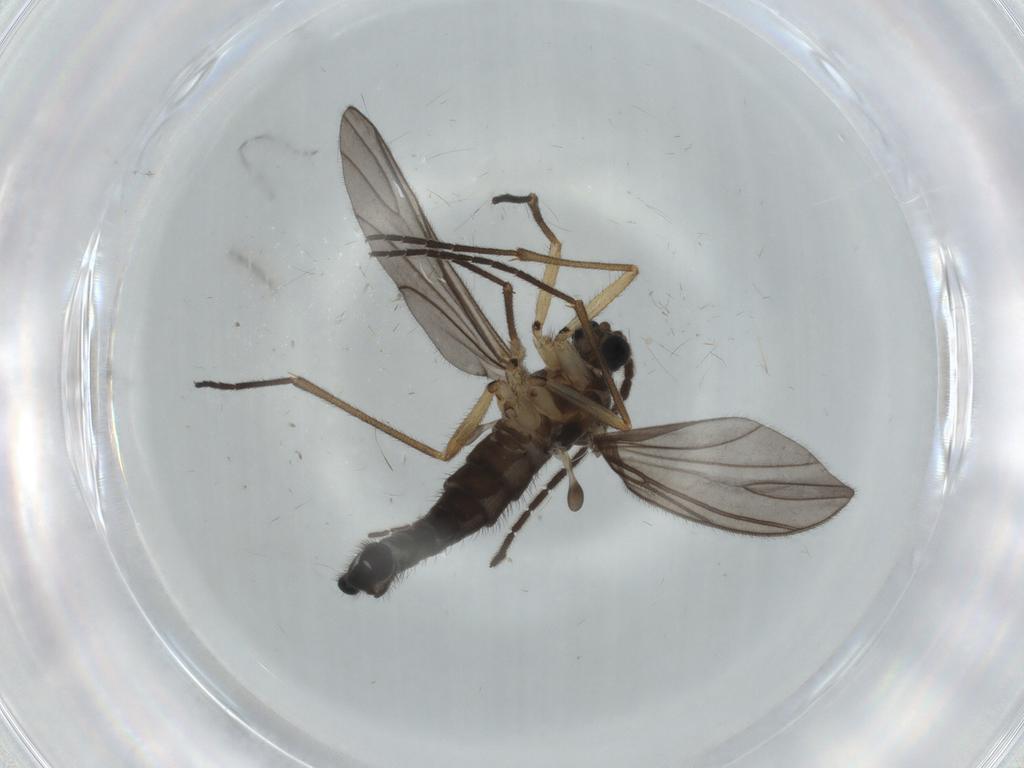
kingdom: Animalia
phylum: Arthropoda
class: Insecta
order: Diptera
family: Sciaridae
